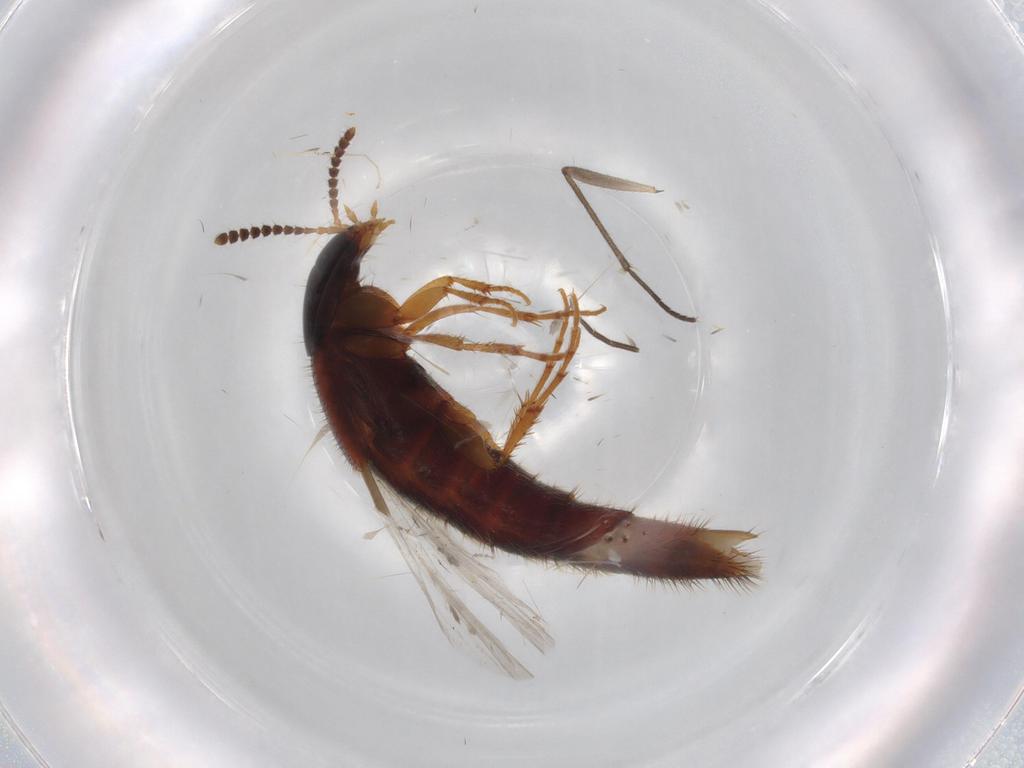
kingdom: Animalia
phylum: Arthropoda
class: Insecta
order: Coleoptera
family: Staphylinidae
